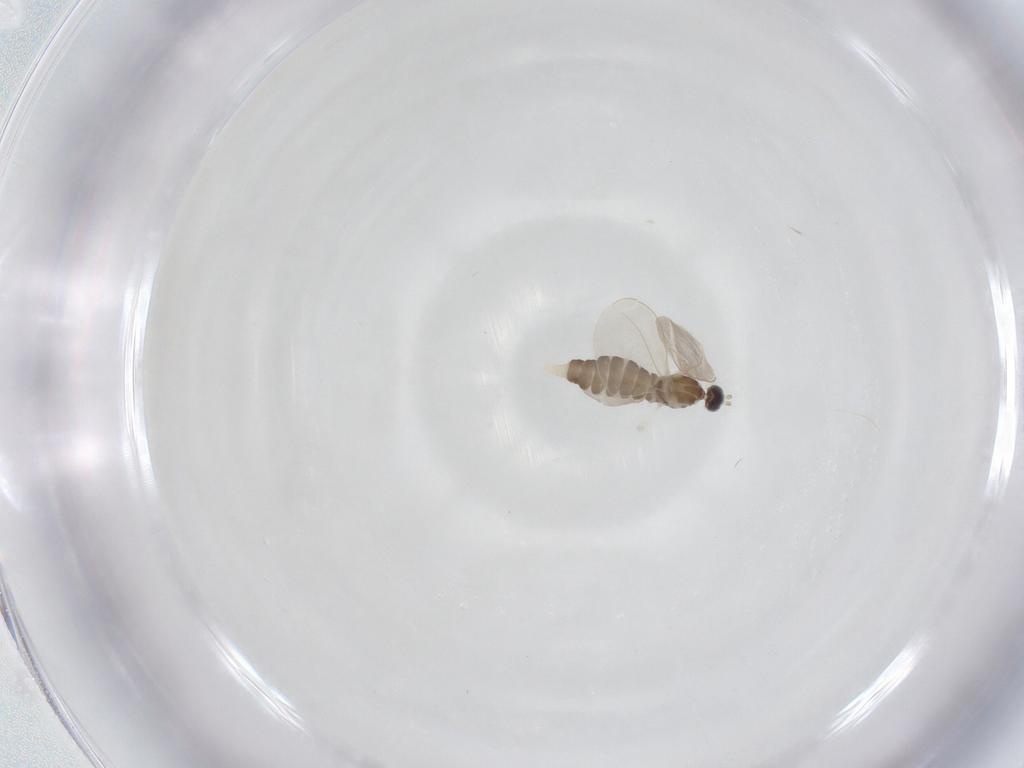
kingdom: Animalia
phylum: Arthropoda
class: Insecta
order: Diptera
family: Cecidomyiidae
